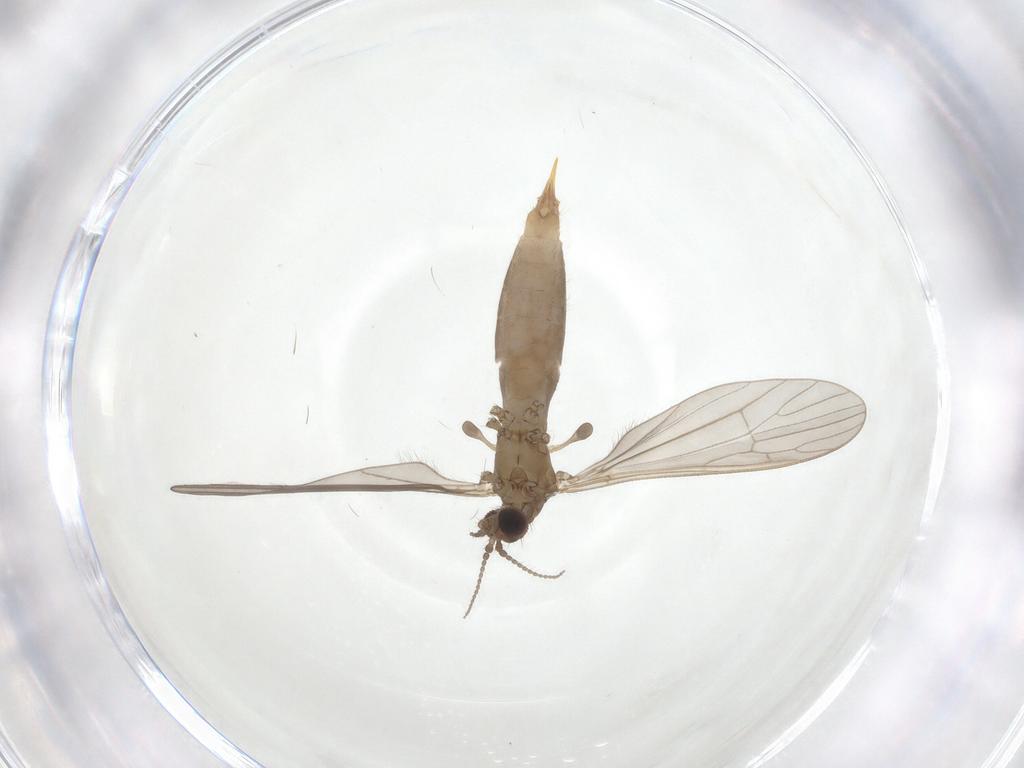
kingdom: Animalia
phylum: Arthropoda
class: Insecta
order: Diptera
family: Limoniidae
